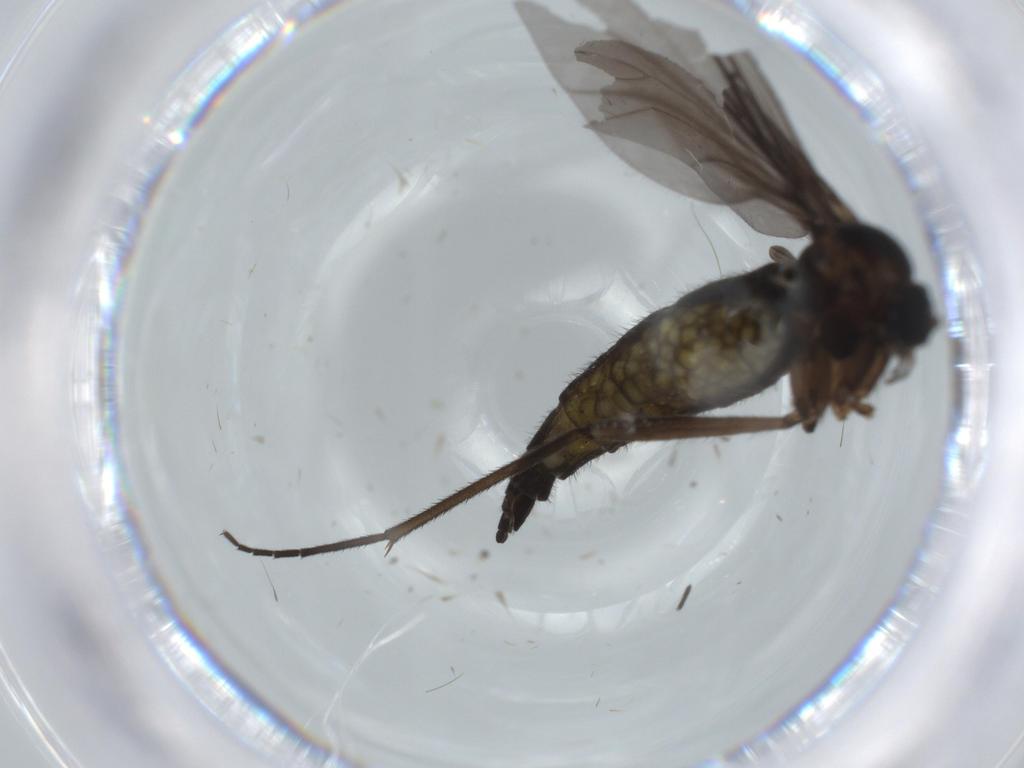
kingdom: Animalia
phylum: Arthropoda
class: Insecta
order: Diptera
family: Sciaridae
